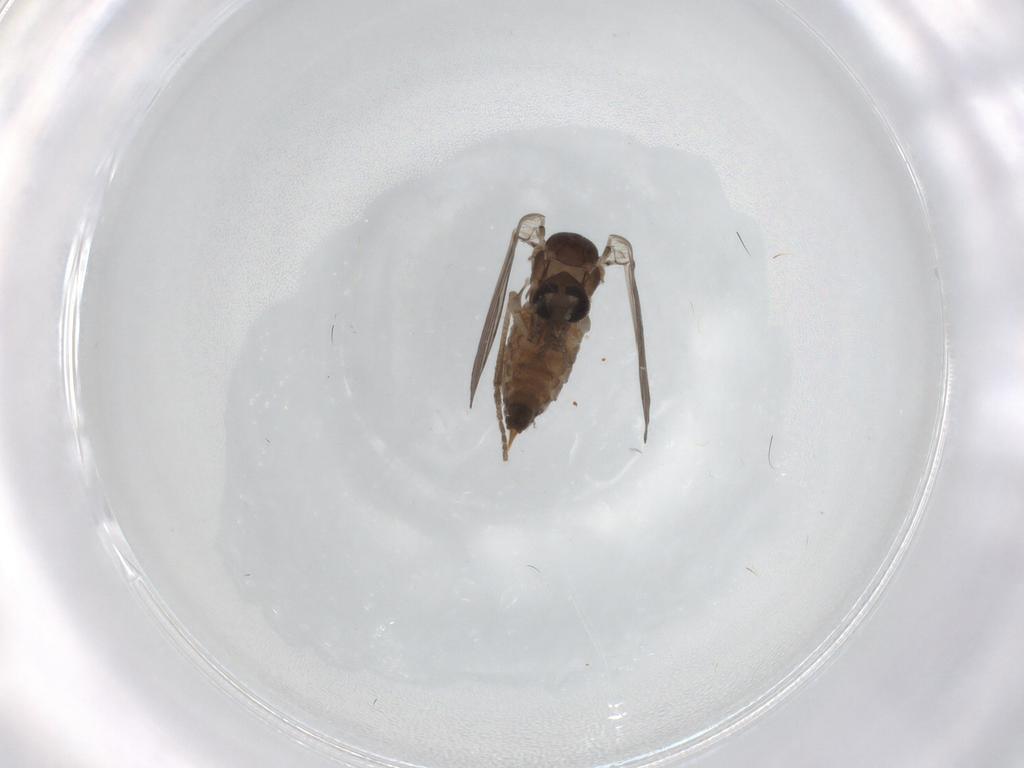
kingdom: Animalia
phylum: Arthropoda
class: Insecta
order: Diptera
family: Psychodidae
